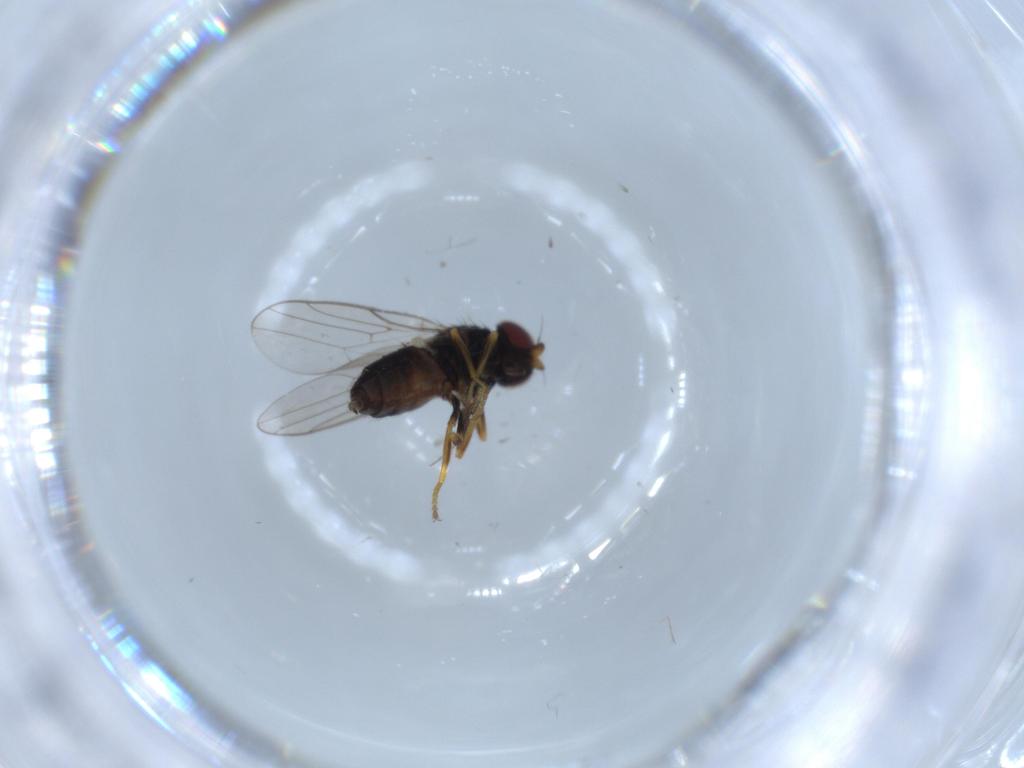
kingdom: Animalia
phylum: Arthropoda
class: Insecta
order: Diptera
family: Chloropidae
